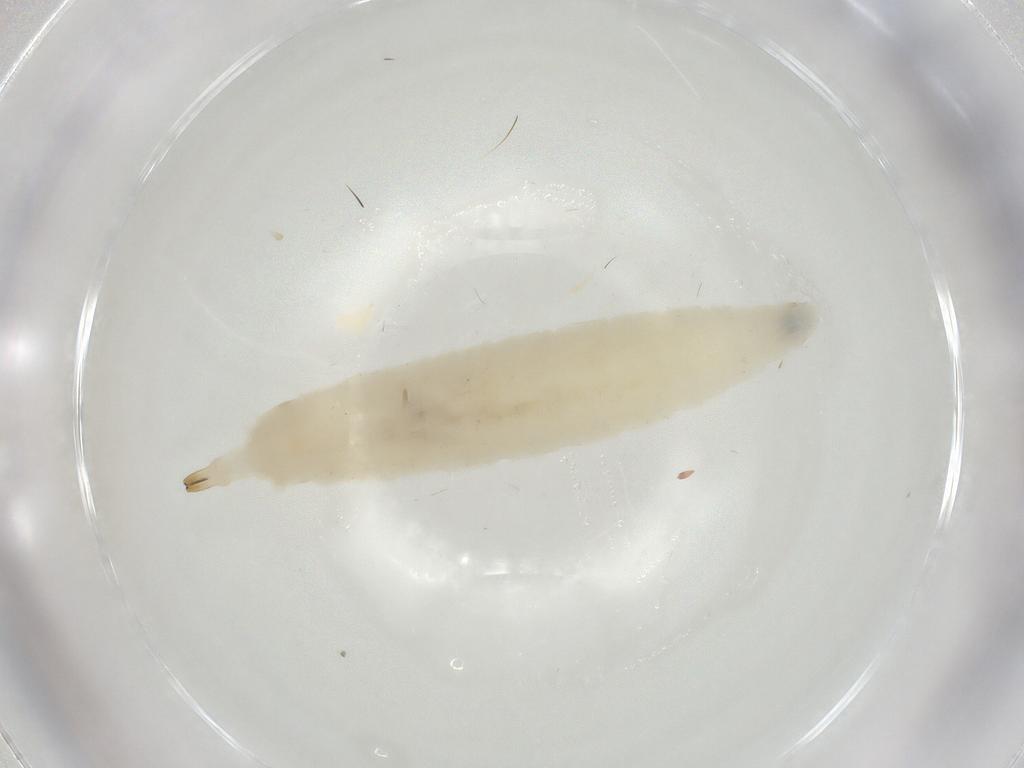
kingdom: Animalia
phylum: Arthropoda
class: Insecta
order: Diptera
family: Drosophilidae
